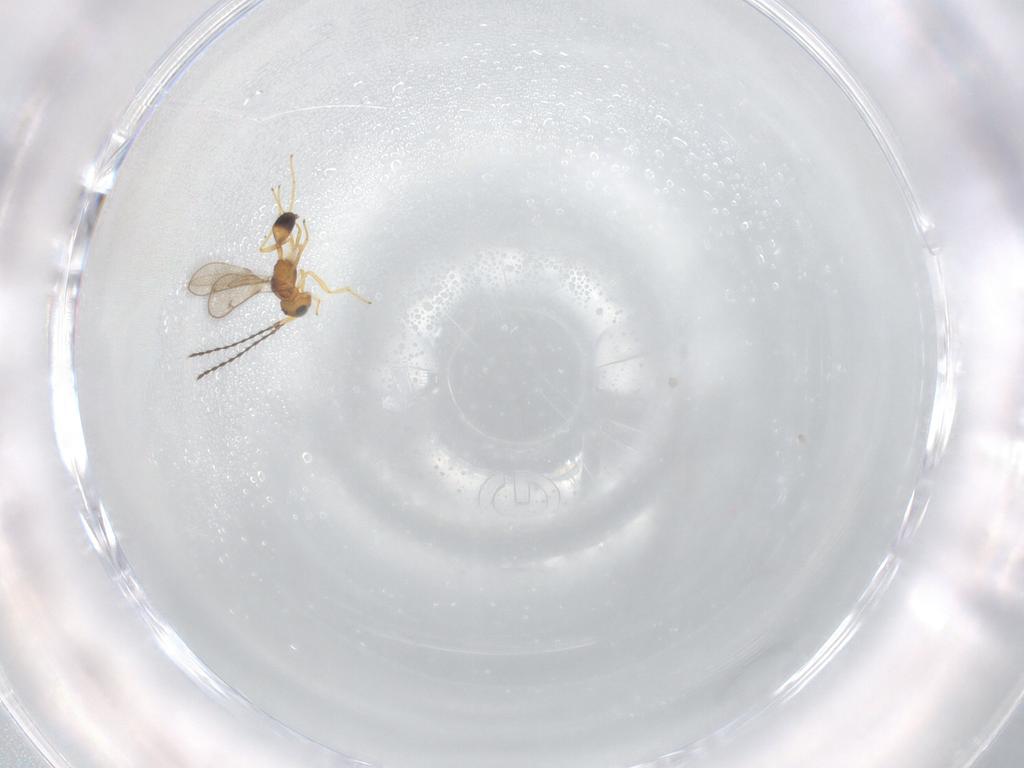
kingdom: Animalia
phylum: Arthropoda
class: Insecta
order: Hymenoptera
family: Diparidae
